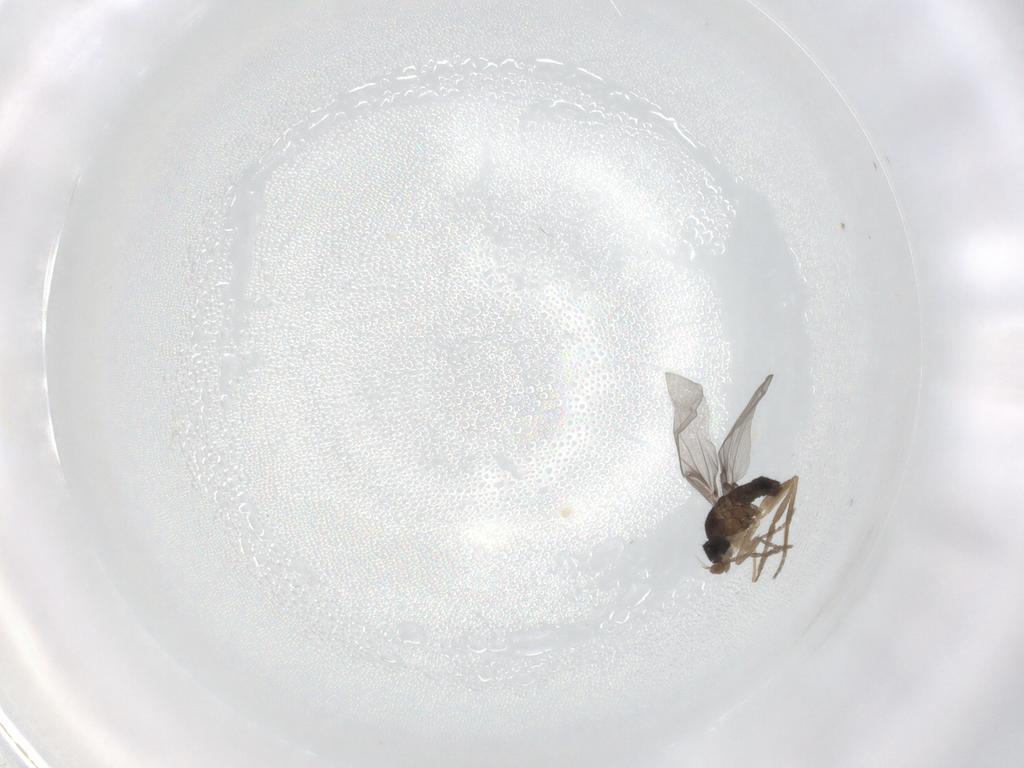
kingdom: Animalia
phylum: Arthropoda
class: Insecta
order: Diptera
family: Phoridae
